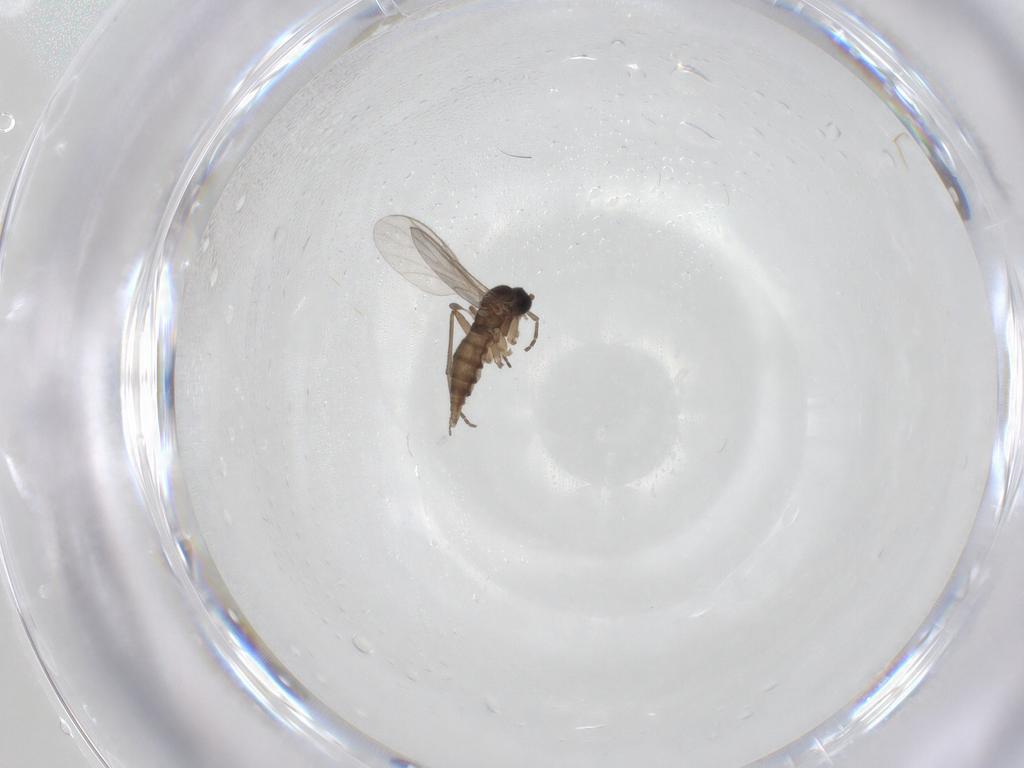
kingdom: Animalia
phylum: Arthropoda
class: Insecta
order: Diptera
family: Sciaridae
